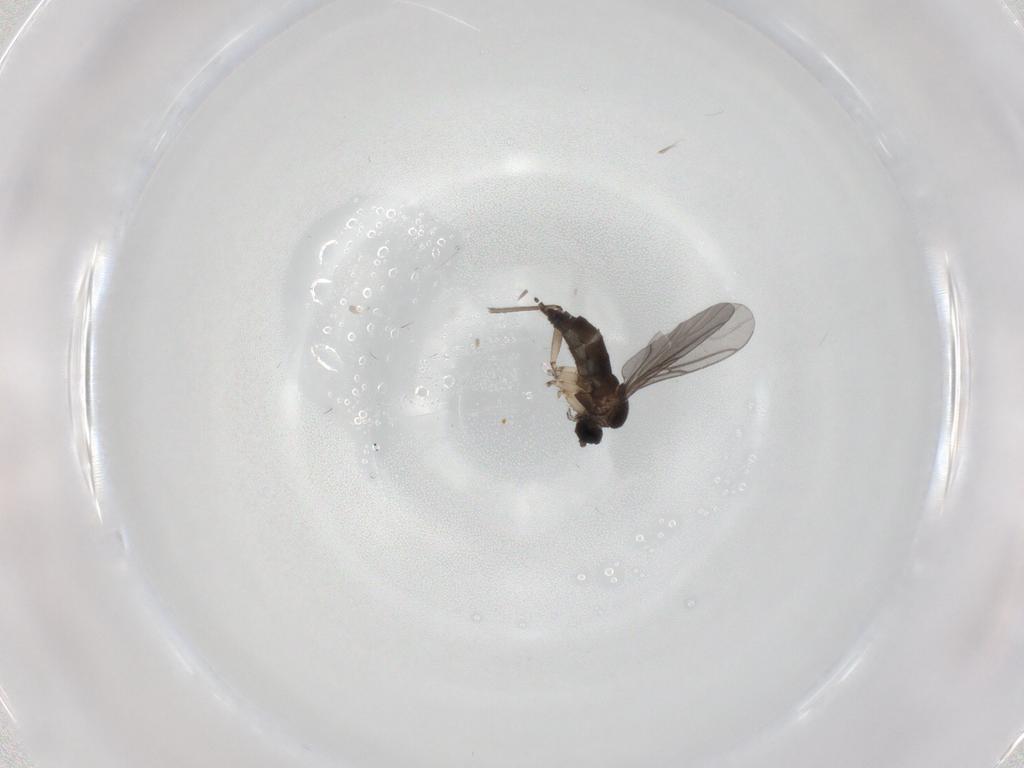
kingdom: Animalia
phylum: Arthropoda
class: Insecta
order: Diptera
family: Sciaridae
